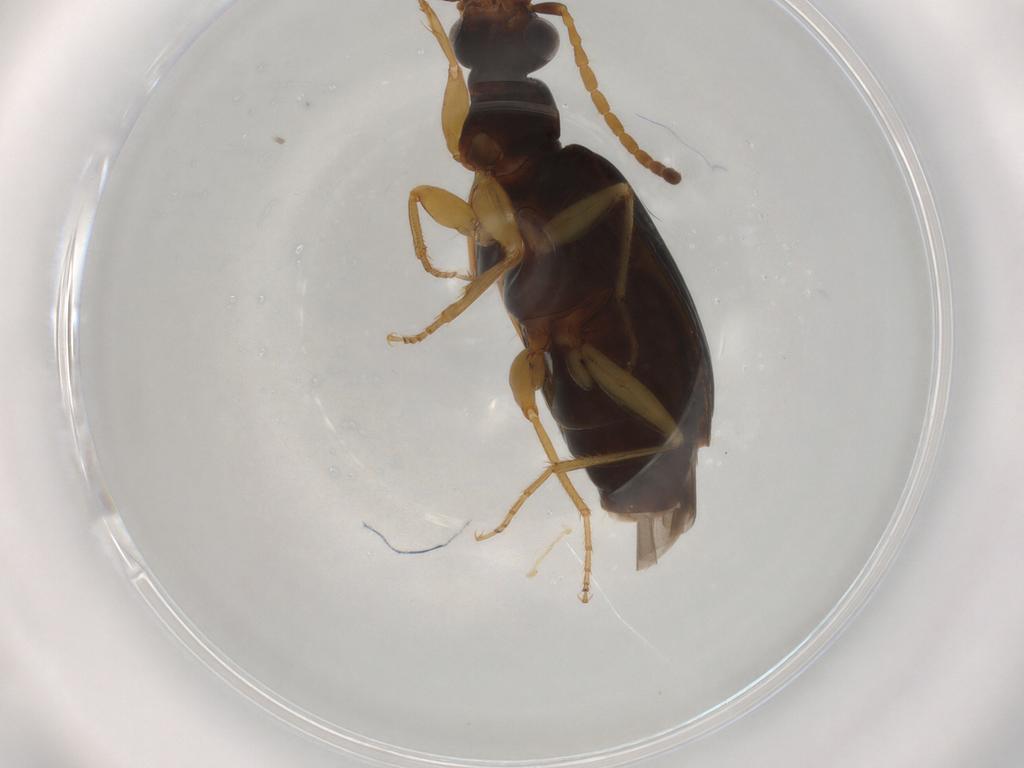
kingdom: Animalia
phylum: Arthropoda
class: Insecta
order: Coleoptera
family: Carabidae
